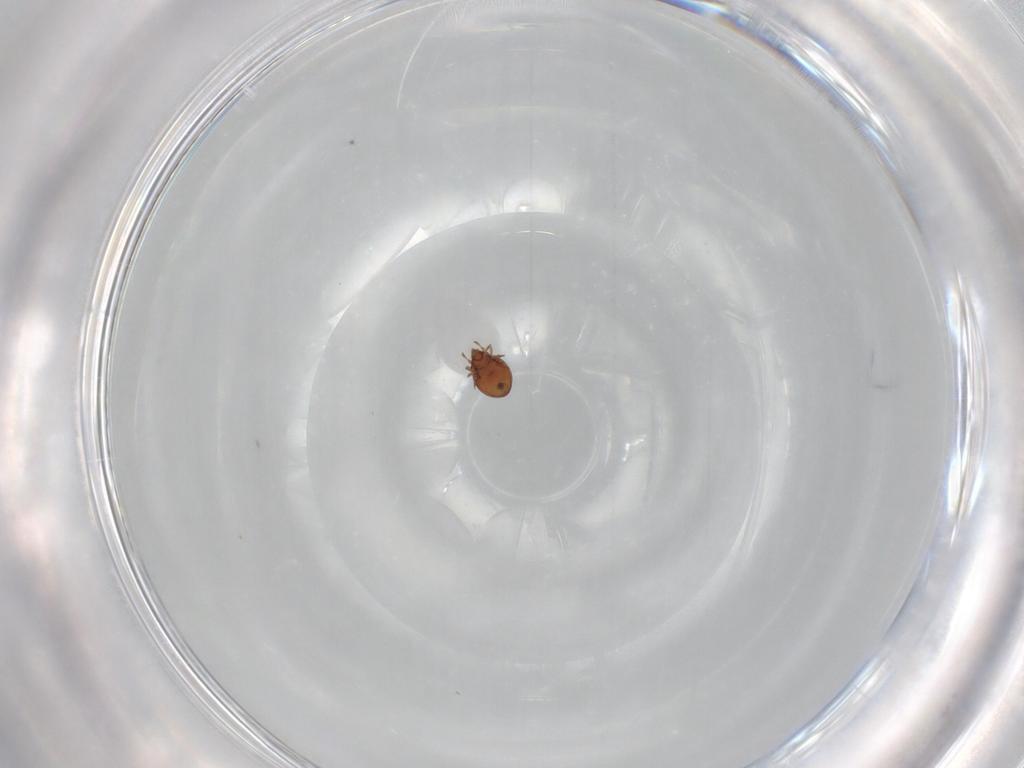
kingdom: Animalia
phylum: Arthropoda
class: Arachnida
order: Sarcoptiformes
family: Oribatulidae
